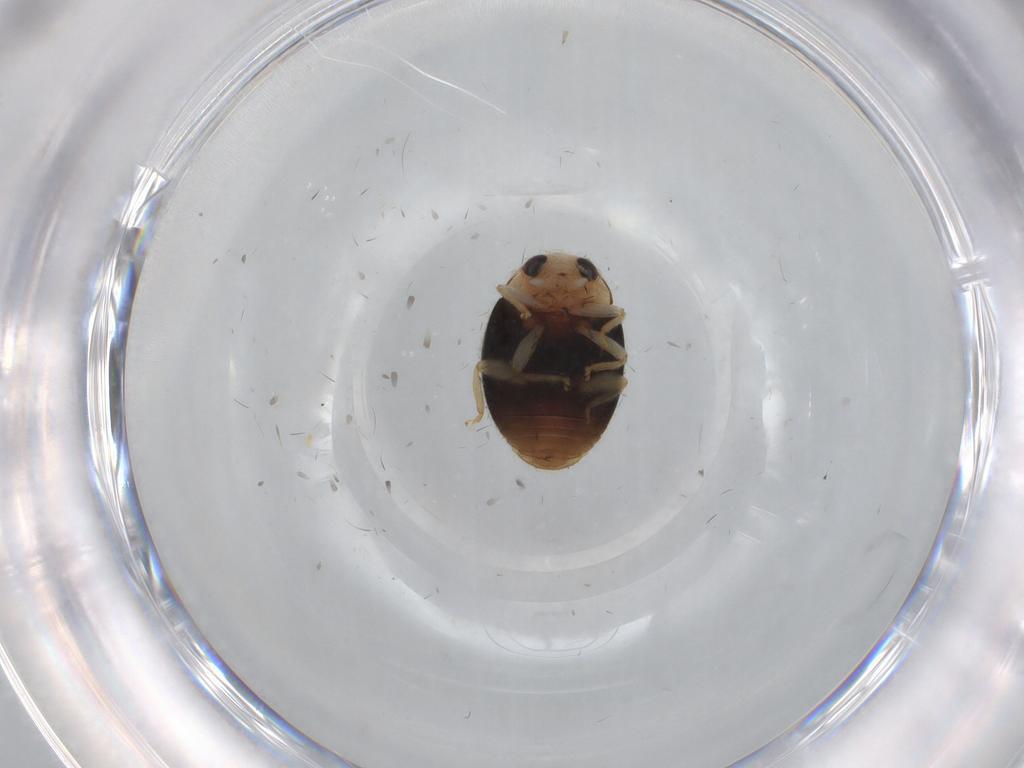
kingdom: Animalia
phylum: Arthropoda
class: Insecta
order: Coleoptera
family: Coccinellidae
